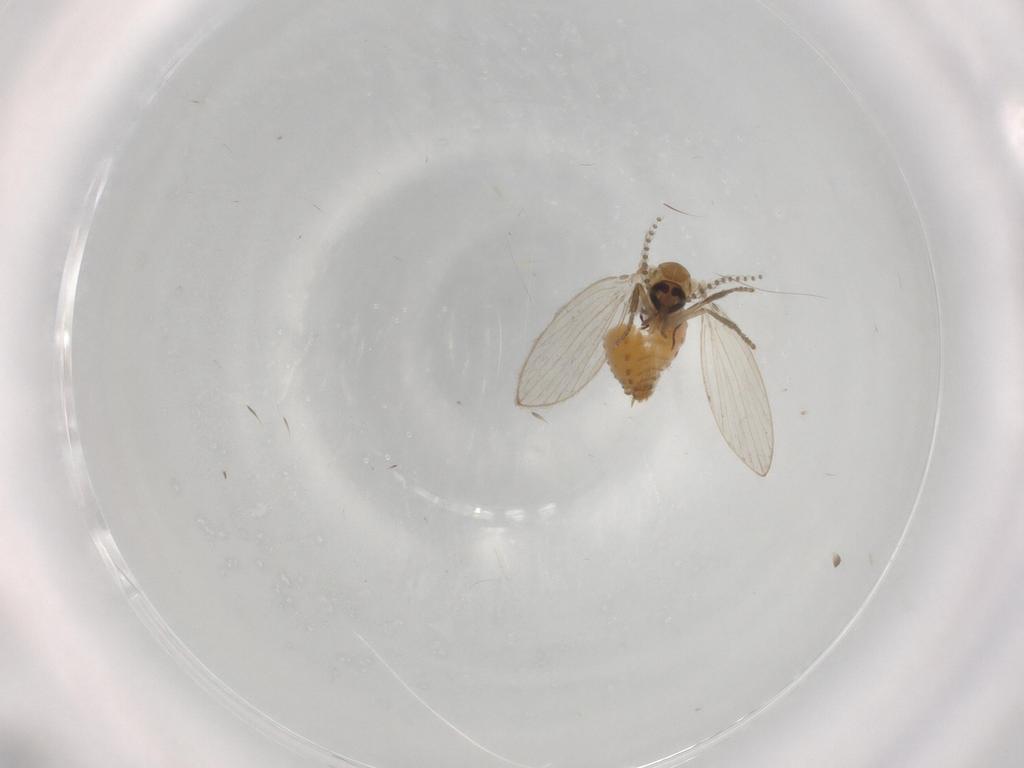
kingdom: Animalia
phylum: Arthropoda
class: Insecta
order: Diptera
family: Psychodidae
